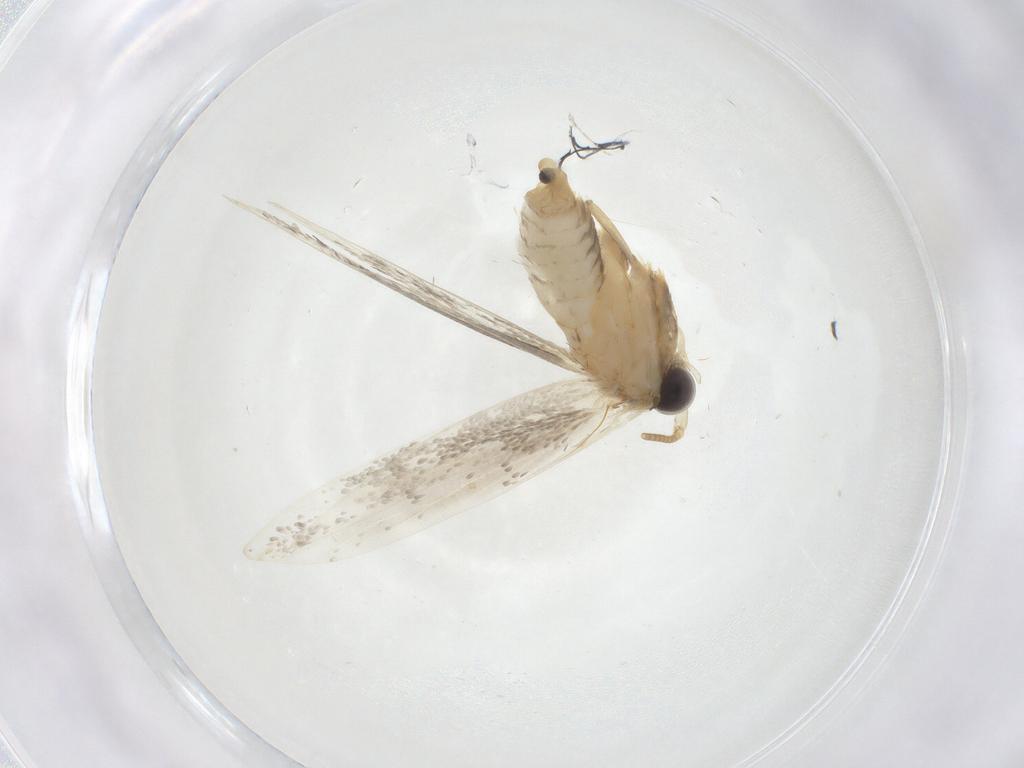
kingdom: Animalia
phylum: Arthropoda
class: Insecta
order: Lepidoptera
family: Tineidae
